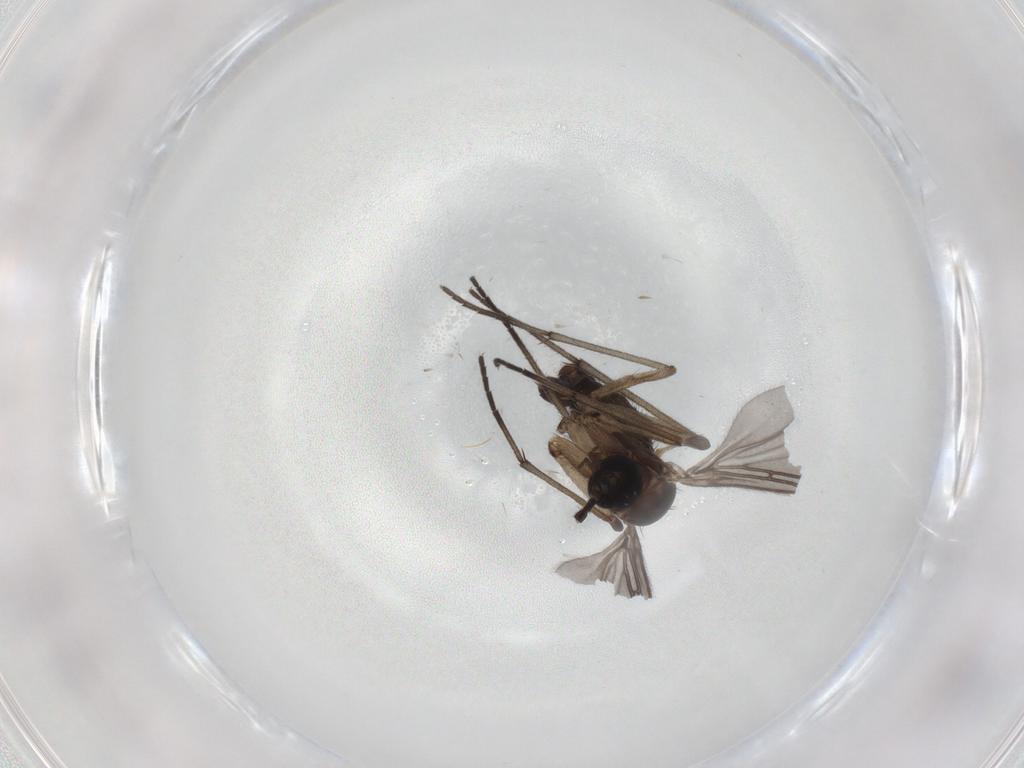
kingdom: Animalia
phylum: Arthropoda
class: Insecta
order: Diptera
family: Sciaridae
